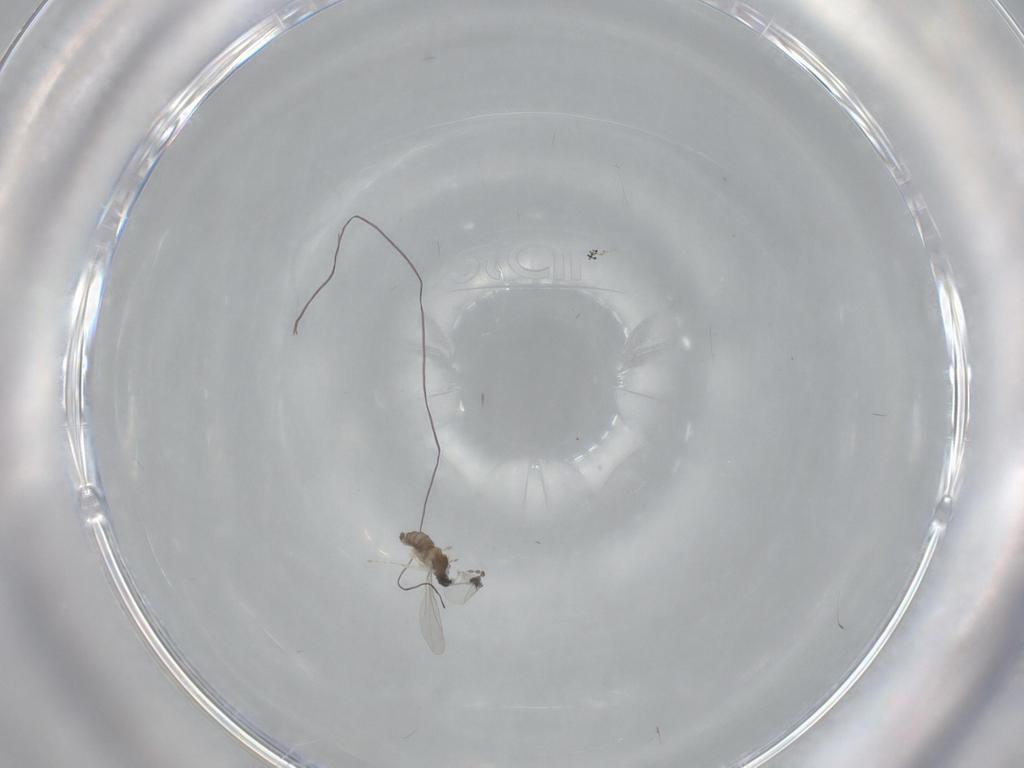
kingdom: Animalia
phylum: Arthropoda
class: Insecta
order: Diptera
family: Cecidomyiidae
